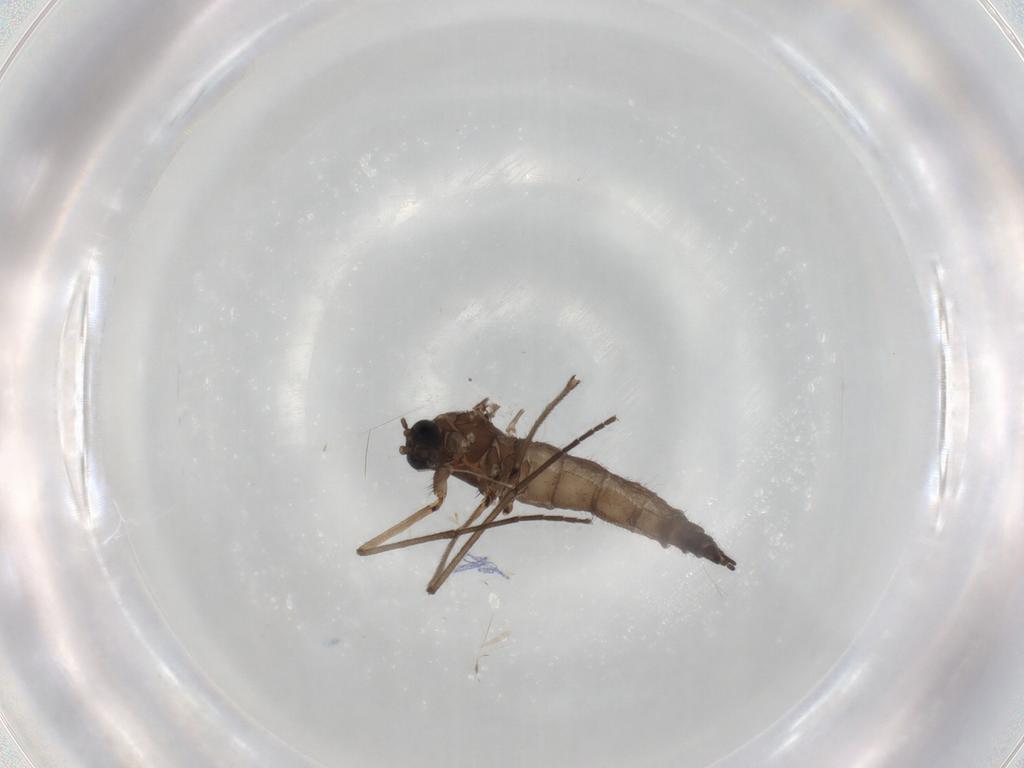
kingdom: Animalia
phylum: Arthropoda
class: Insecta
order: Diptera
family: Sciaridae
